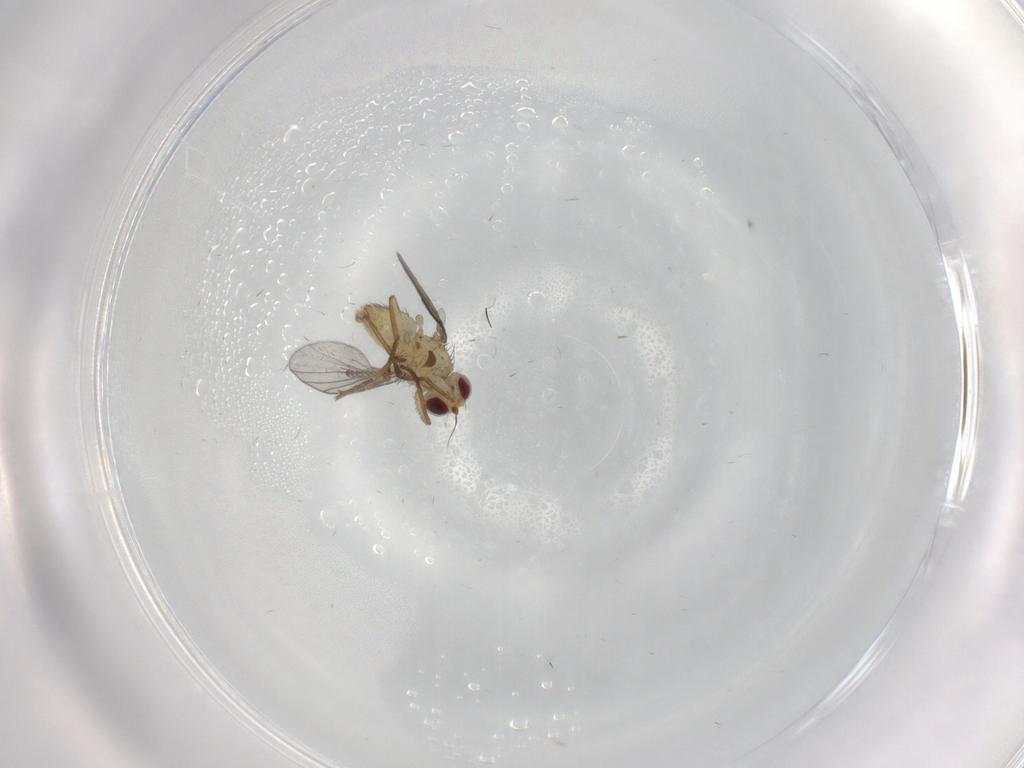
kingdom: Animalia
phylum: Arthropoda
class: Insecta
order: Diptera
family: Agromyzidae
